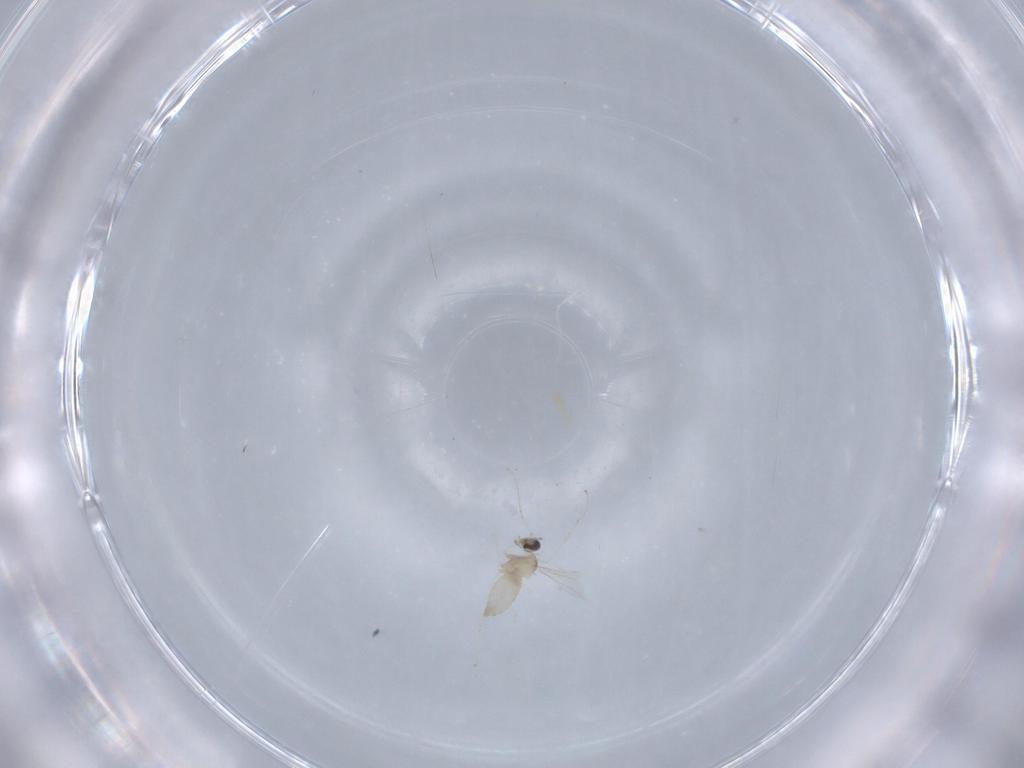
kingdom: Animalia
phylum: Arthropoda
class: Insecta
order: Diptera
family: Cecidomyiidae
